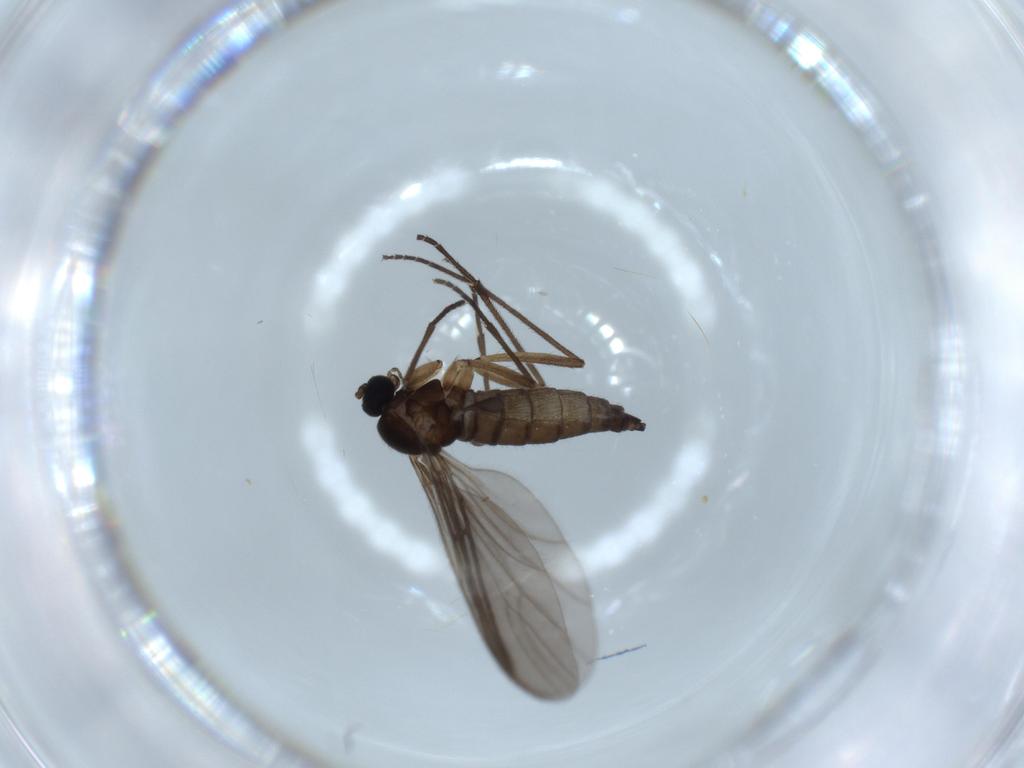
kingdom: Animalia
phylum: Arthropoda
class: Insecta
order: Diptera
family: Sciaridae
